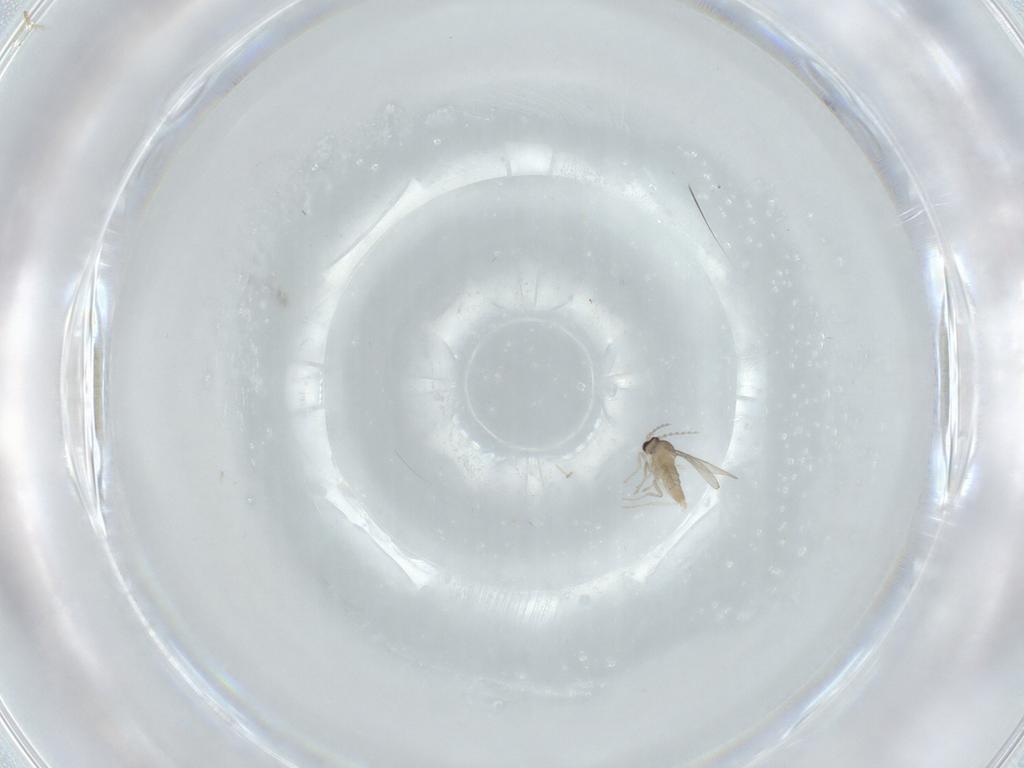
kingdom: Animalia
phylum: Arthropoda
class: Insecta
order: Diptera
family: Cecidomyiidae
